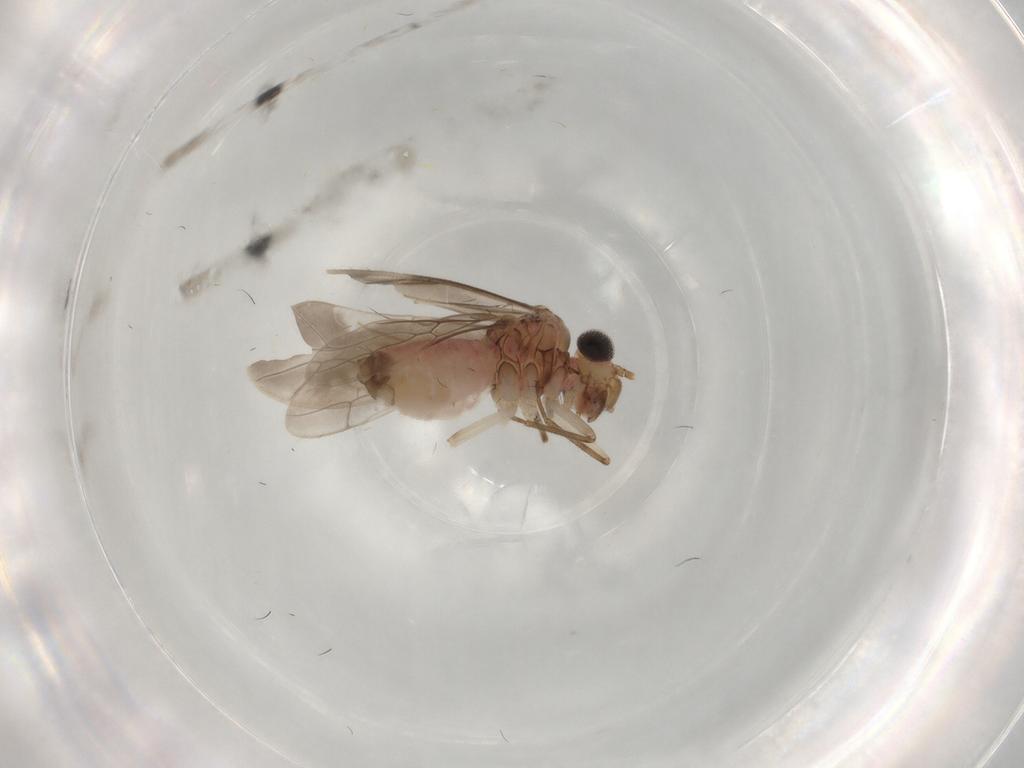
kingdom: Animalia
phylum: Arthropoda
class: Insecta
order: Psocodea
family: Caeciliusidae
